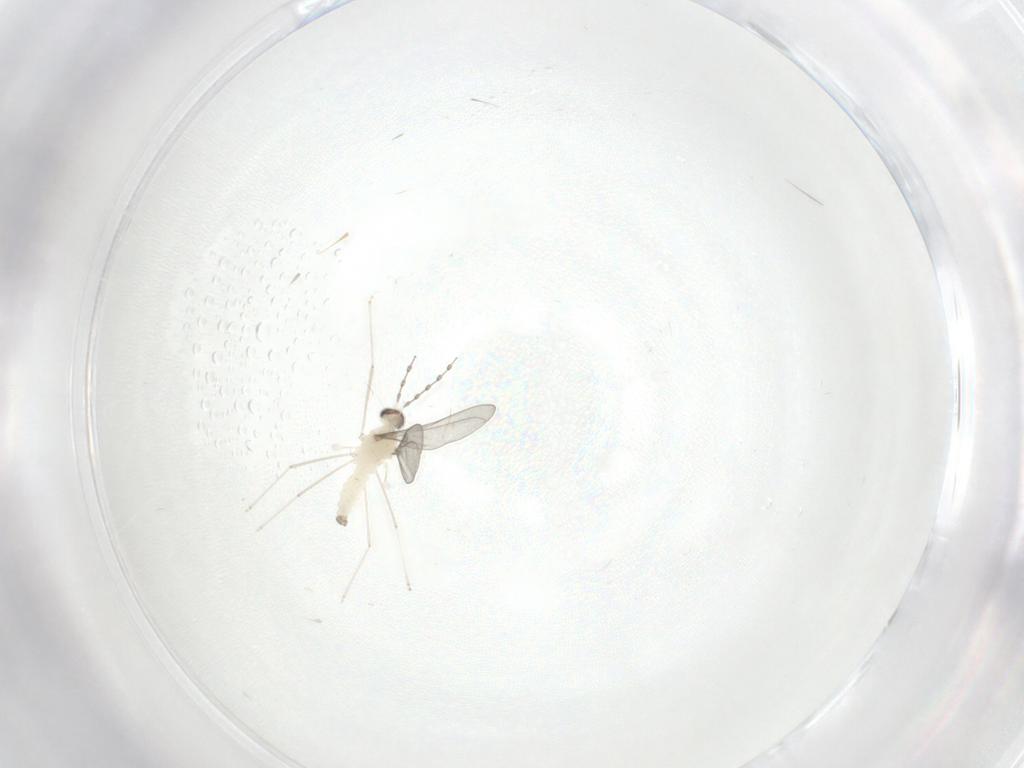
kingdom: Animalia
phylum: Arthropoda
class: Insecta
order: Diptera
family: Cecidomyiidae
